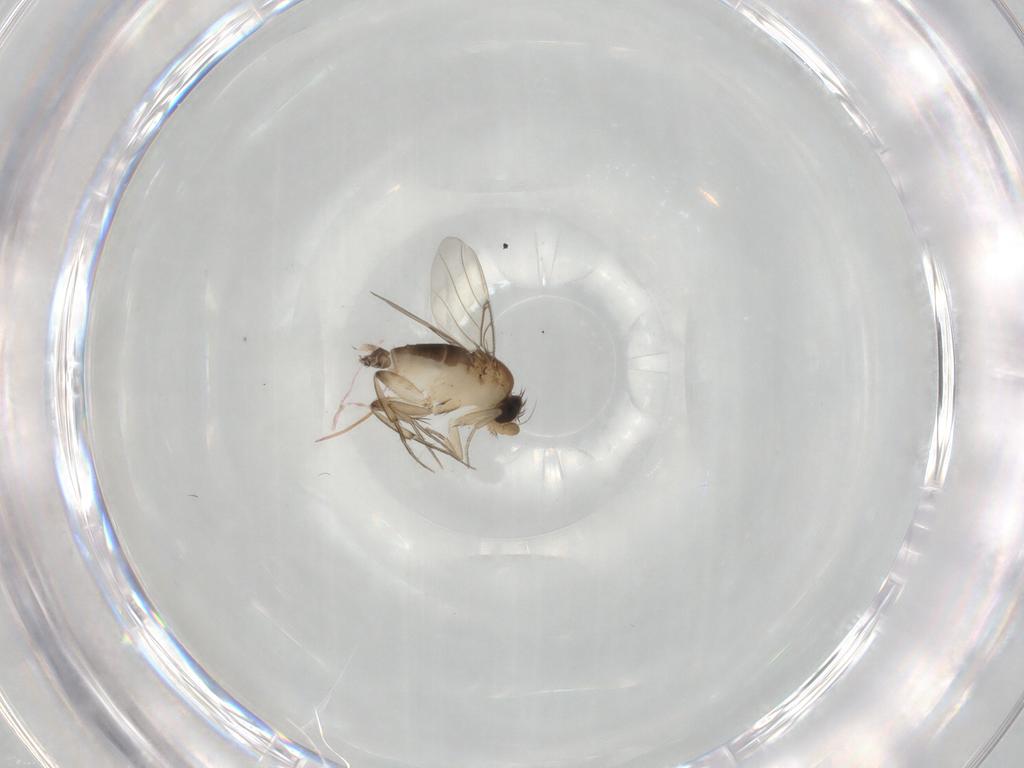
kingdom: Animalia
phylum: Arthropoda
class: Insecta
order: Diptera
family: Phoridae
